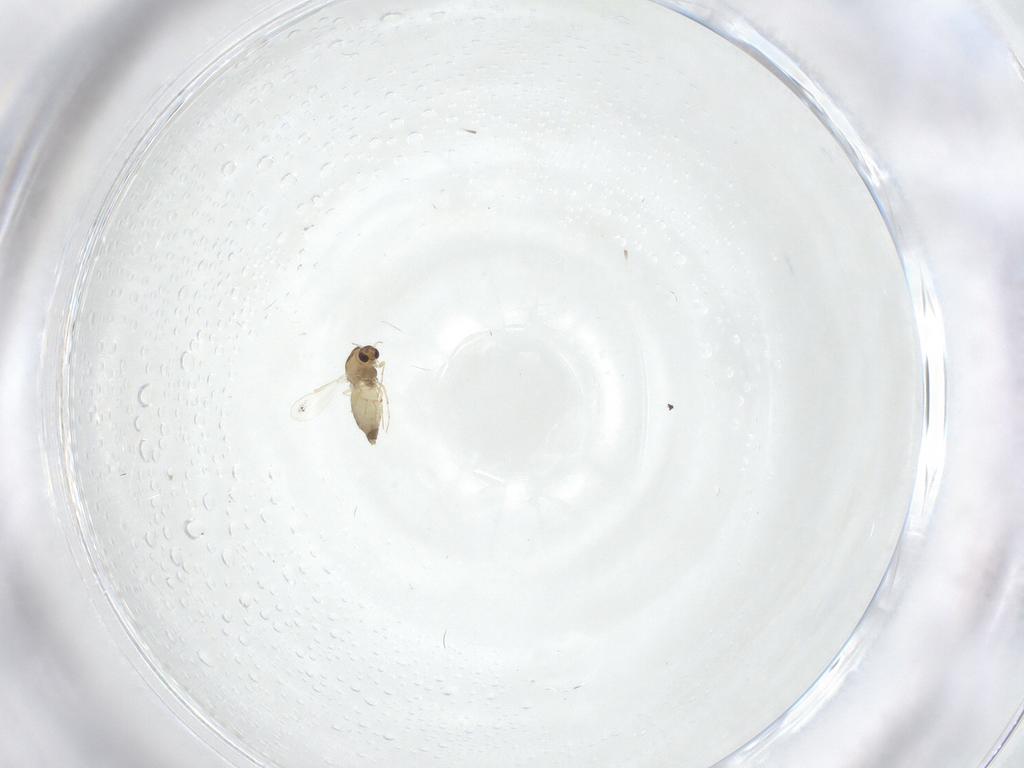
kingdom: Animalia
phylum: Arthropoda
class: Insecta
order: Diptera
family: Chironomidae
